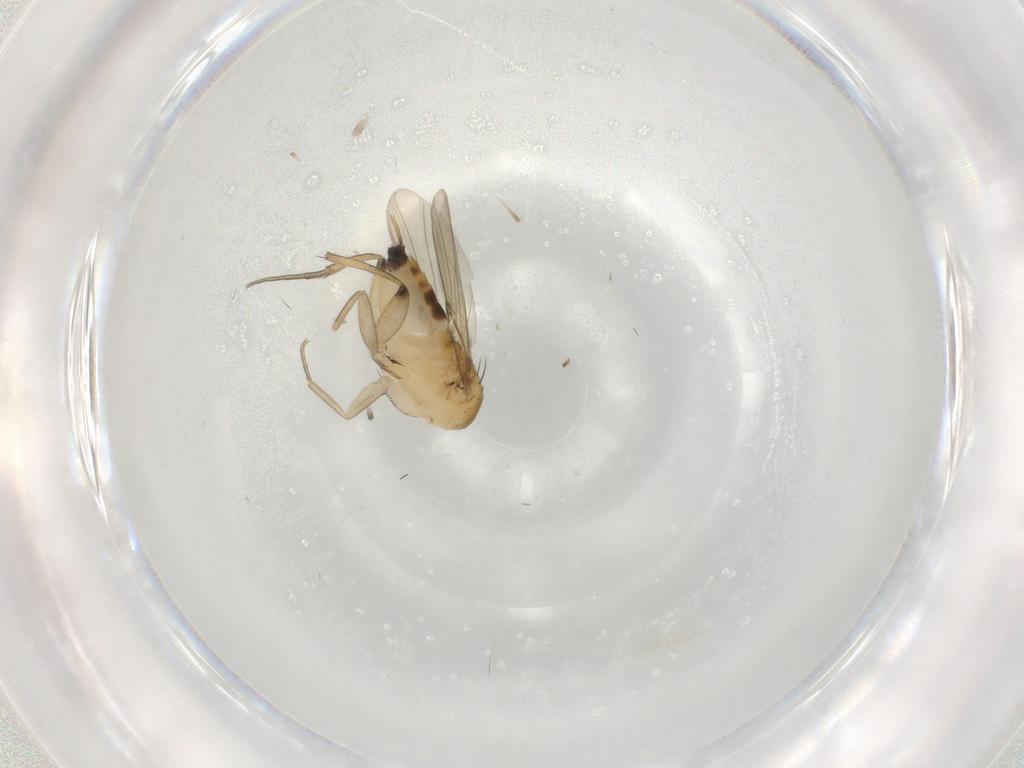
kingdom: Animalia
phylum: Arthropoda
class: Insecta
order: Diptera
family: Phoridae
